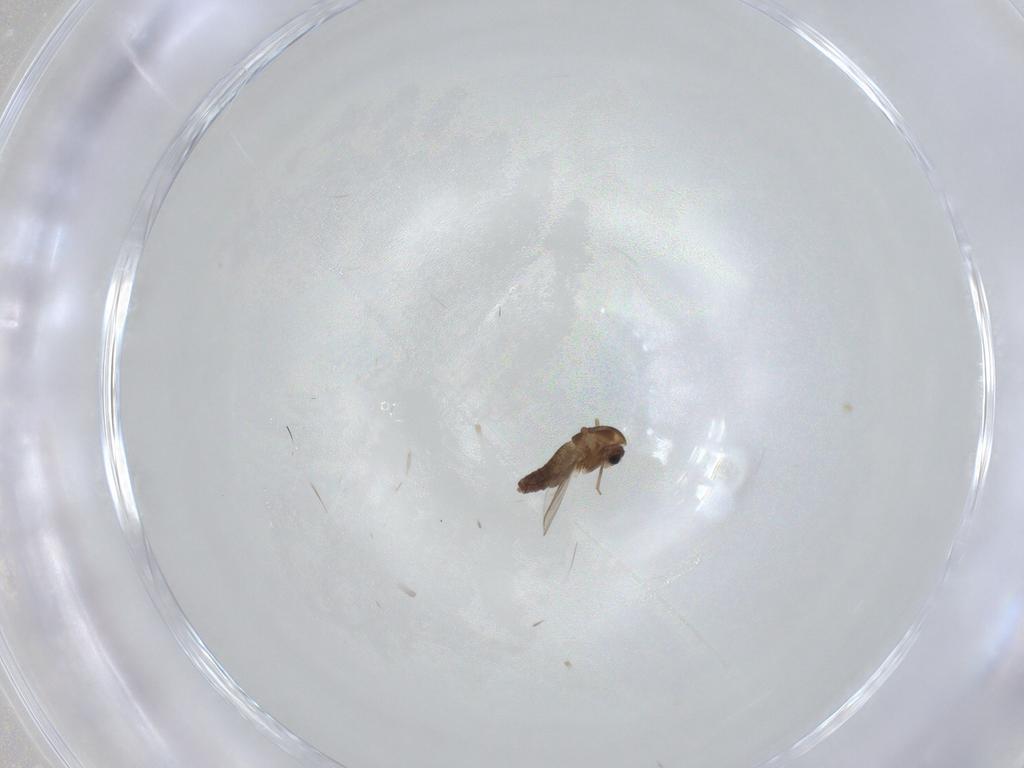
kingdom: Animalia
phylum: Arthropoda
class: Insecta
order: Diptera
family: Chironomidae
